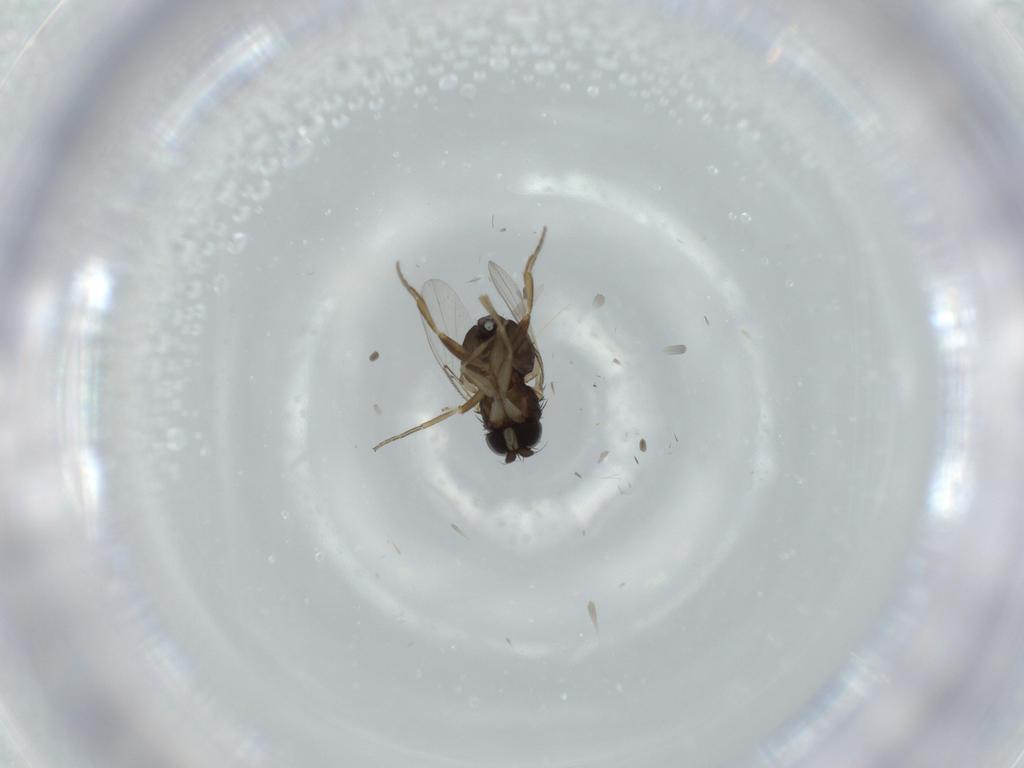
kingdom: Animalia
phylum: Arthropoda
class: Insecta
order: Diptera
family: Phoridae
